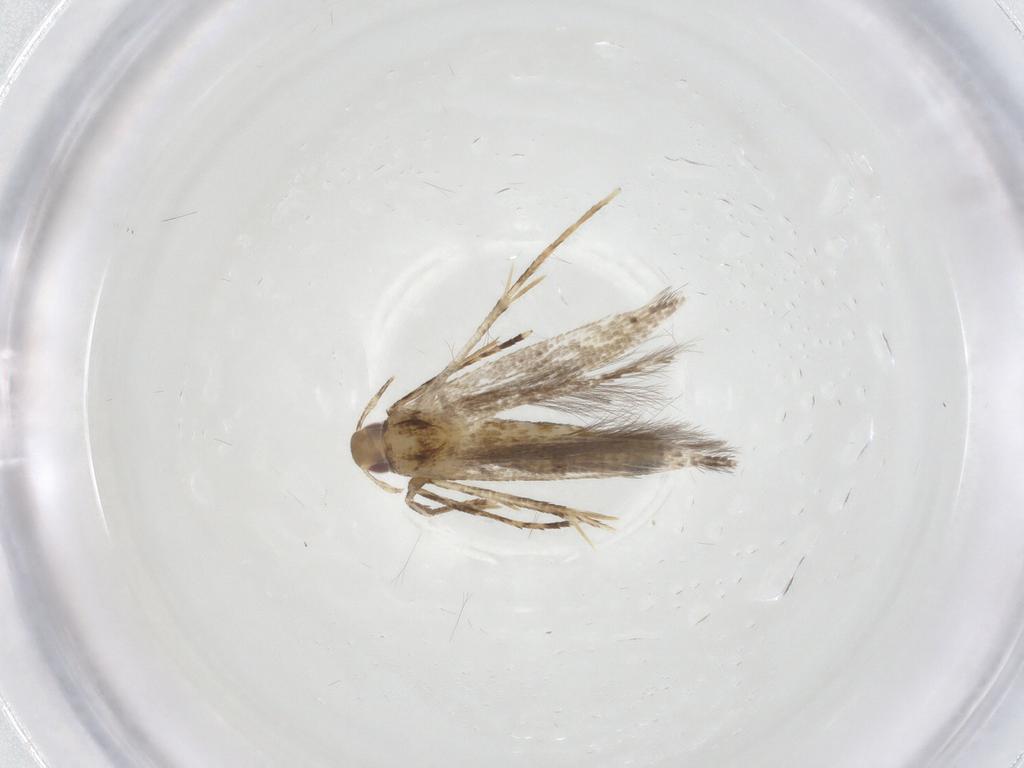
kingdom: Animalia
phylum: Arthropoda
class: Insecta
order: Lepidoptera
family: Cosmopterigidae
